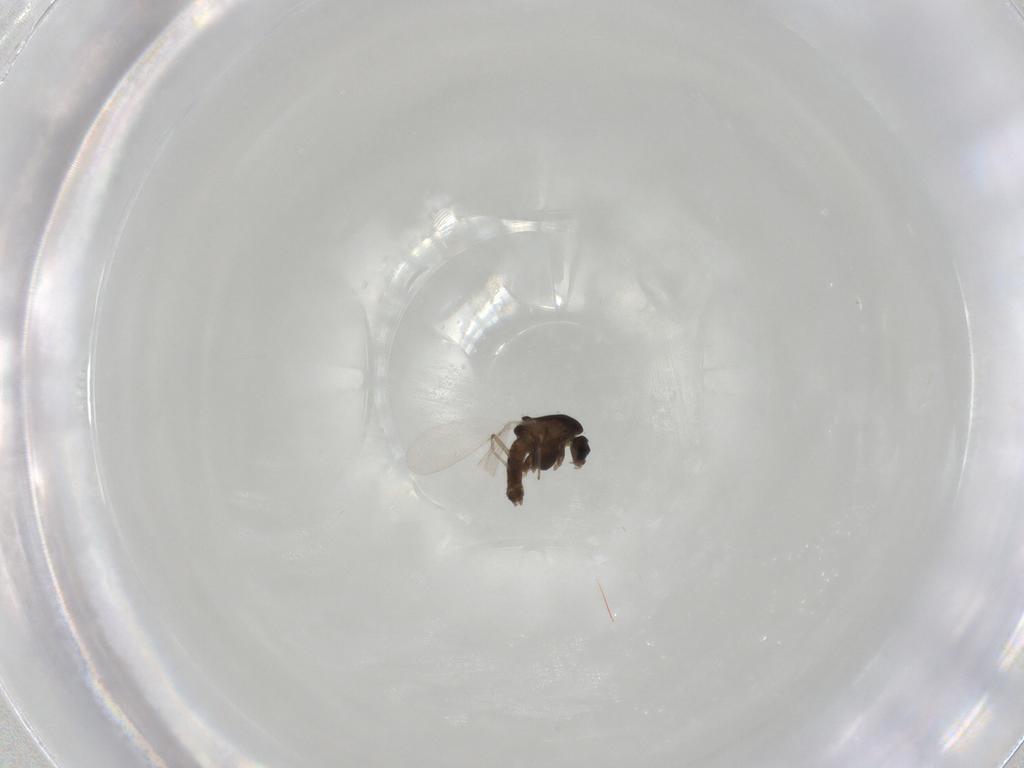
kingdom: Animalia
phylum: Arthropoda
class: Insecta
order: Diptera
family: Chironomidae
